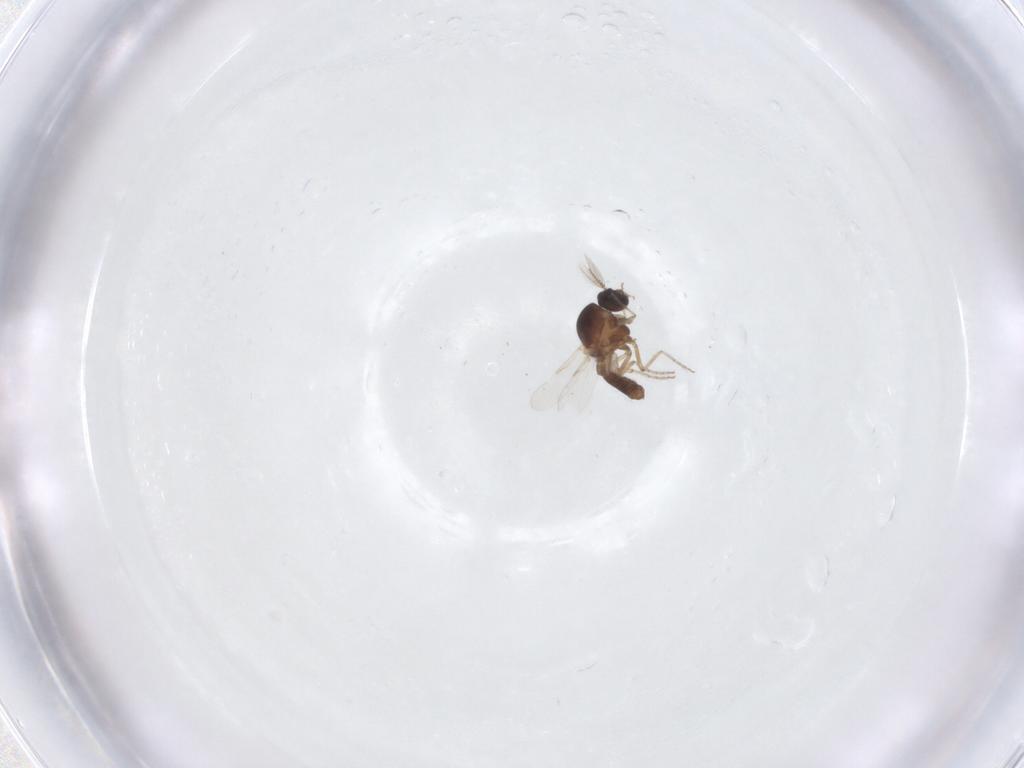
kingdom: Animalia
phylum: Arthropoda
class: Insecta
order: Diptera
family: Ceratopogonidae
